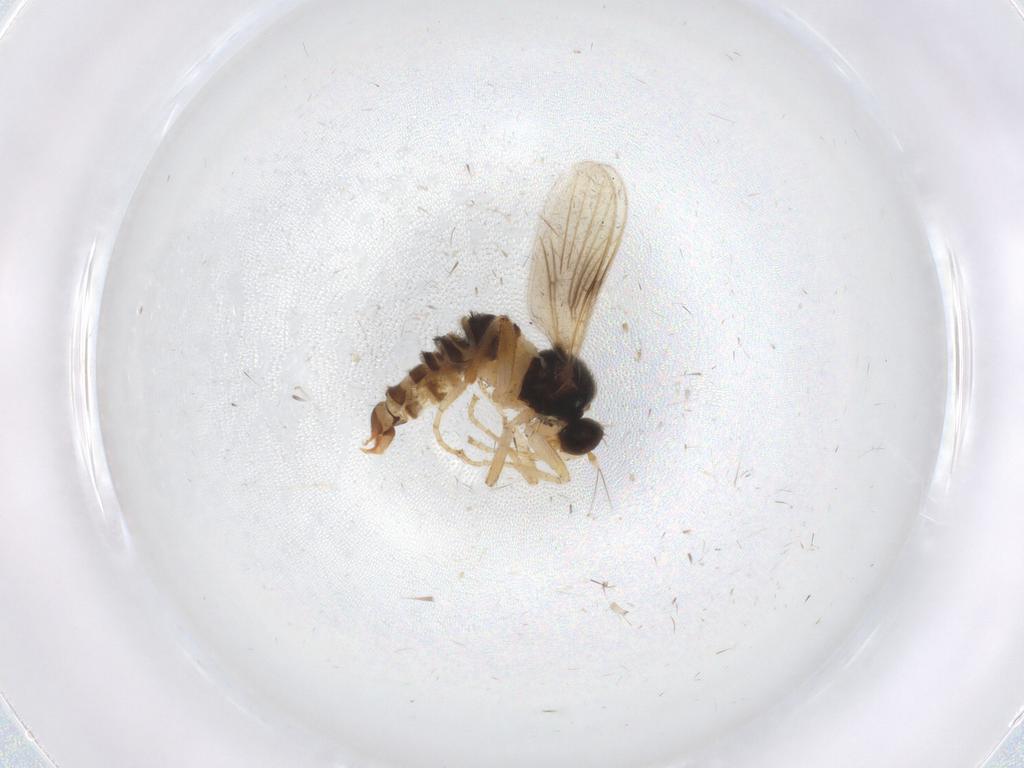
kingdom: Animalia
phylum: Arthropoda
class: Insecta
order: Diptera
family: Hybotidae
